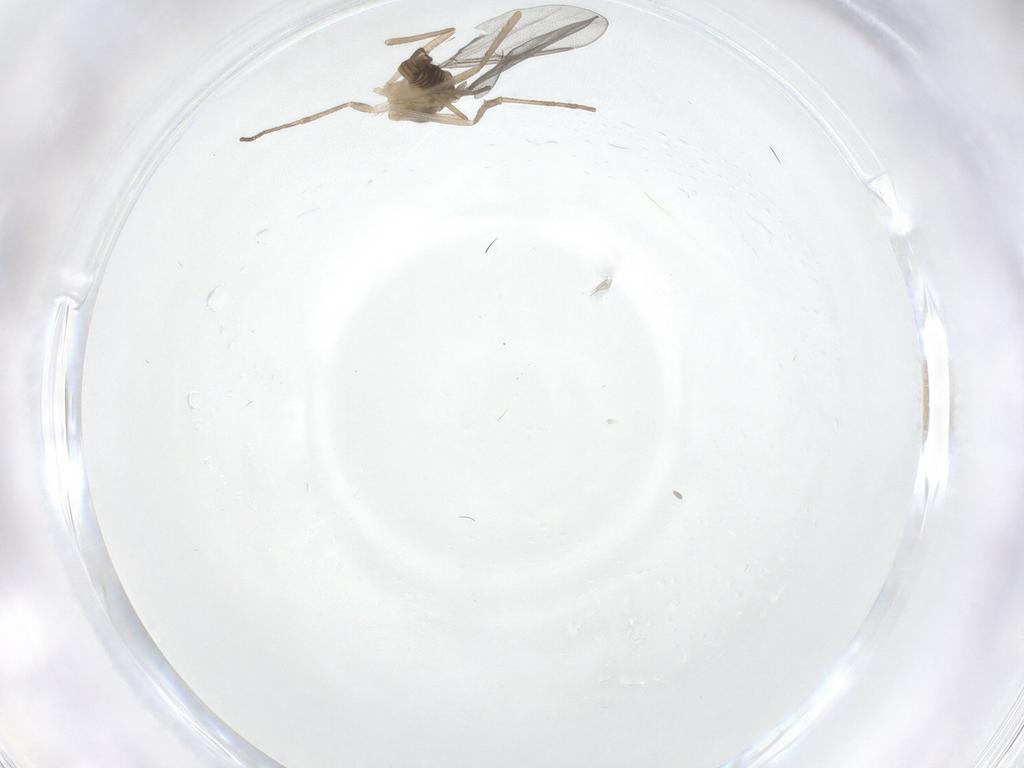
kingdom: Animalia
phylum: Arthropoda
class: Insecta
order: Diptera
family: Cecidomyiidae
